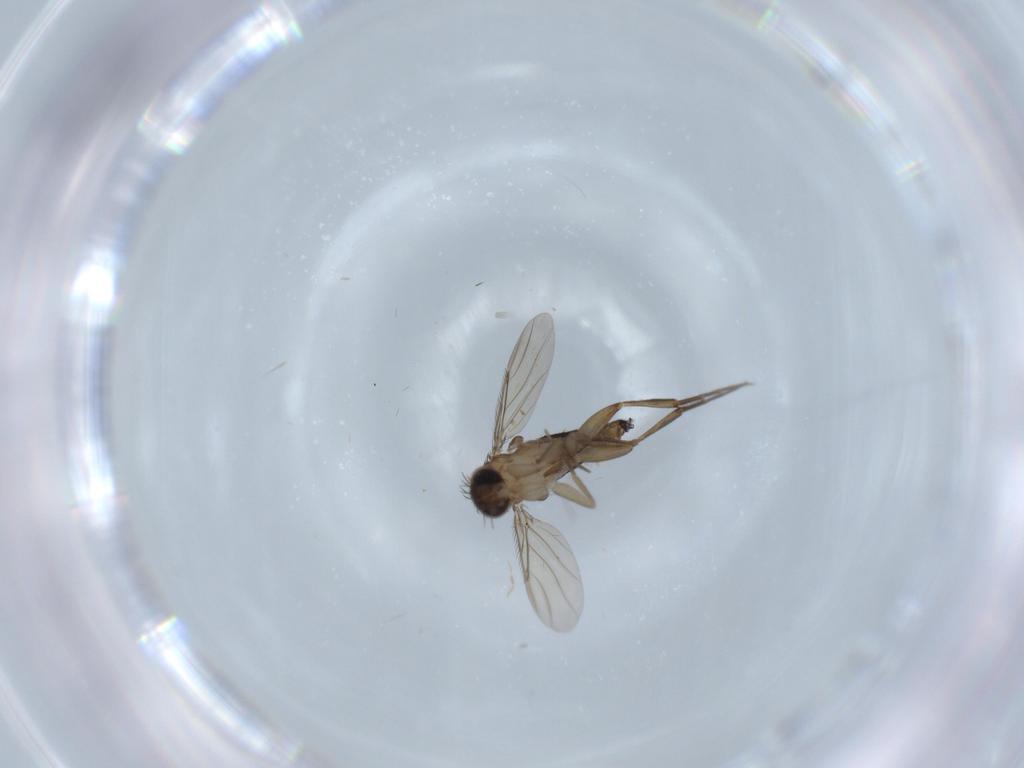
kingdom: Animalia
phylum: Arthropoda
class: Insecta
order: Diptera
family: Phoridae
